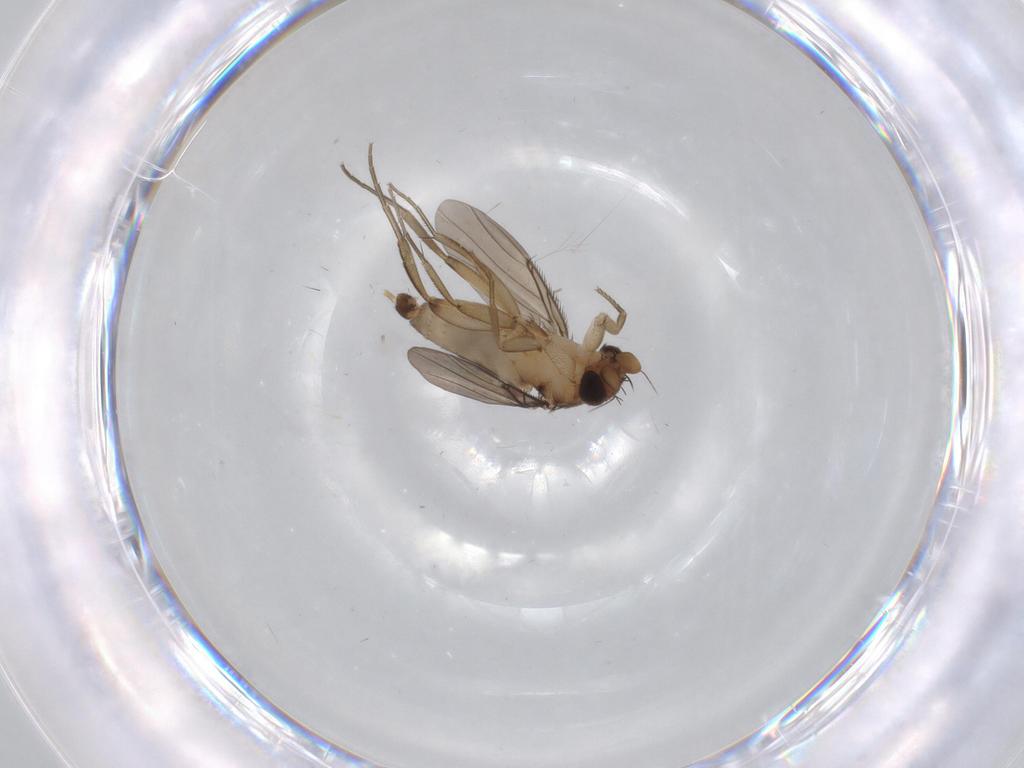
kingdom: Animalia
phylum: Arthropoda
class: Insecta
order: Diptera
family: Phoridae
